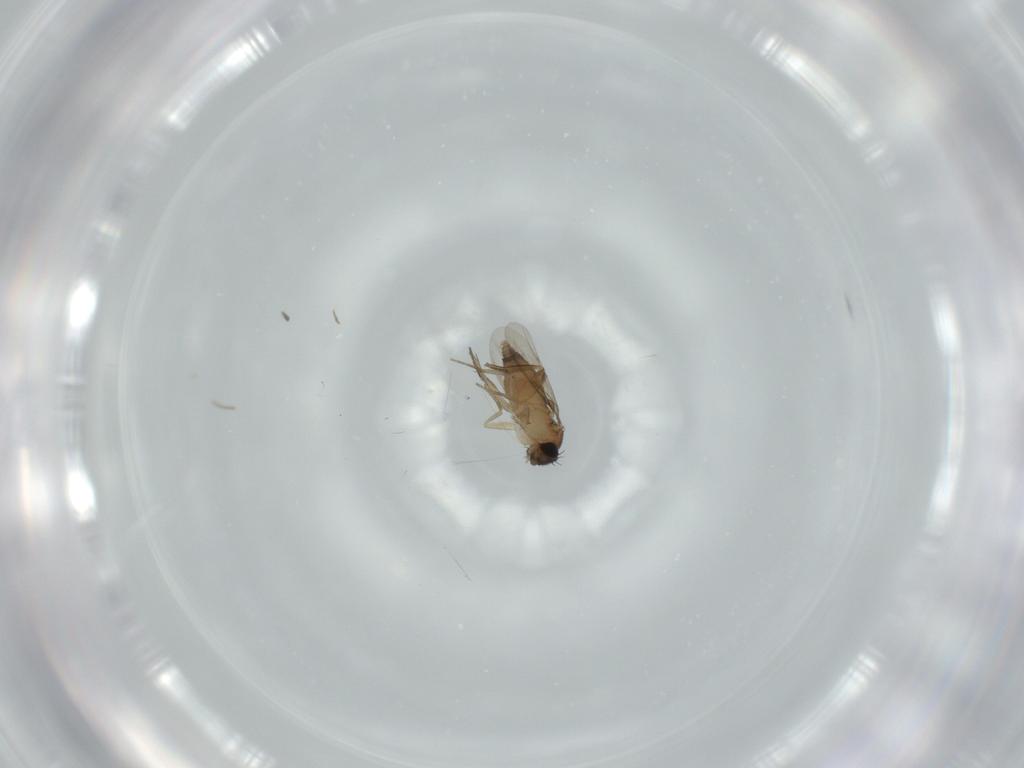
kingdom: Animalia
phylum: Arthropoda
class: Insecta
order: Diptera
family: Phoridae
